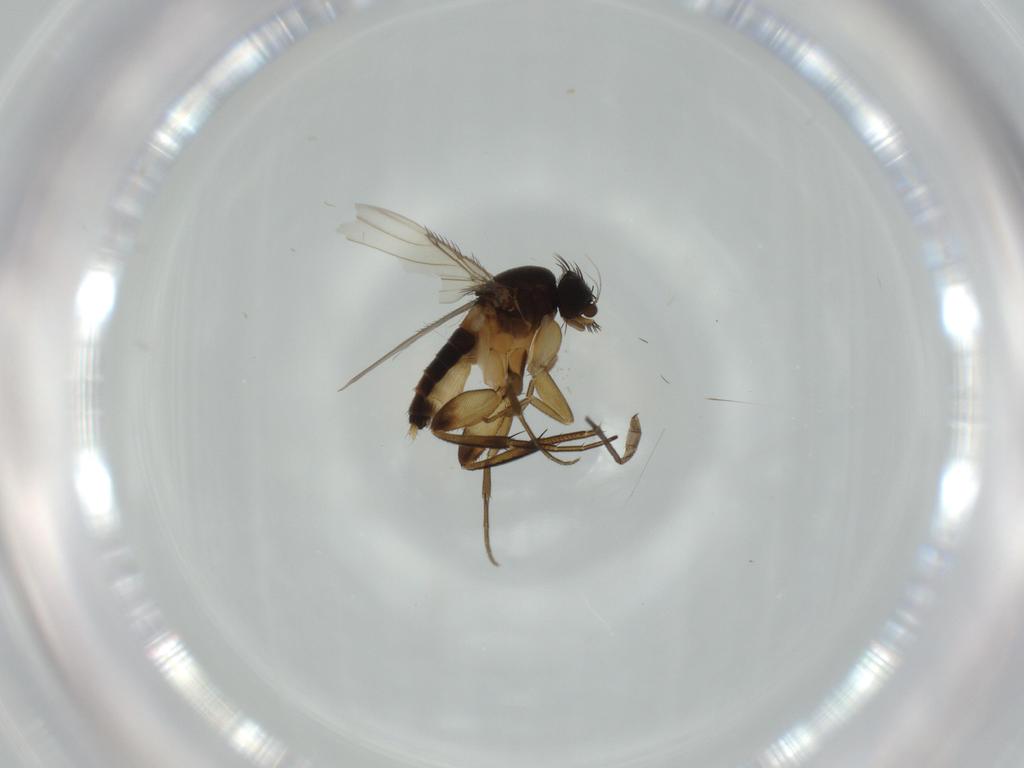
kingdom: Animalia
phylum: Arthropoda
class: Insecta
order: Diptera
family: Phoridae
